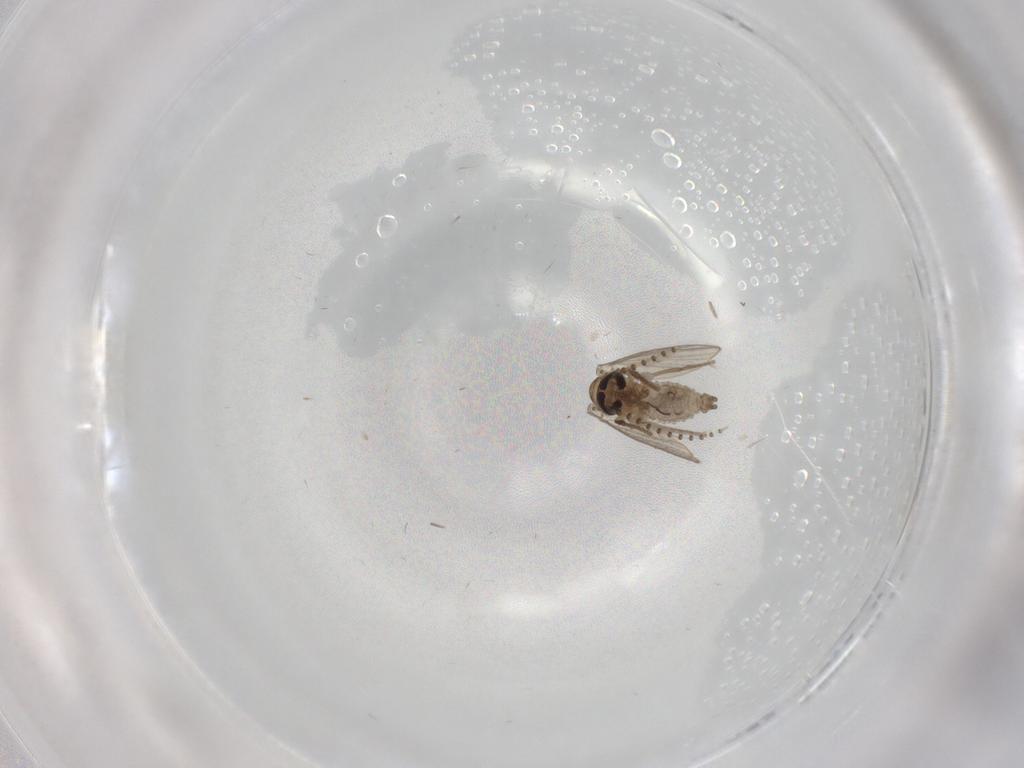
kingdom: Animalia
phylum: Arthropoda
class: Insecta
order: Diptera
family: Psychodidae
